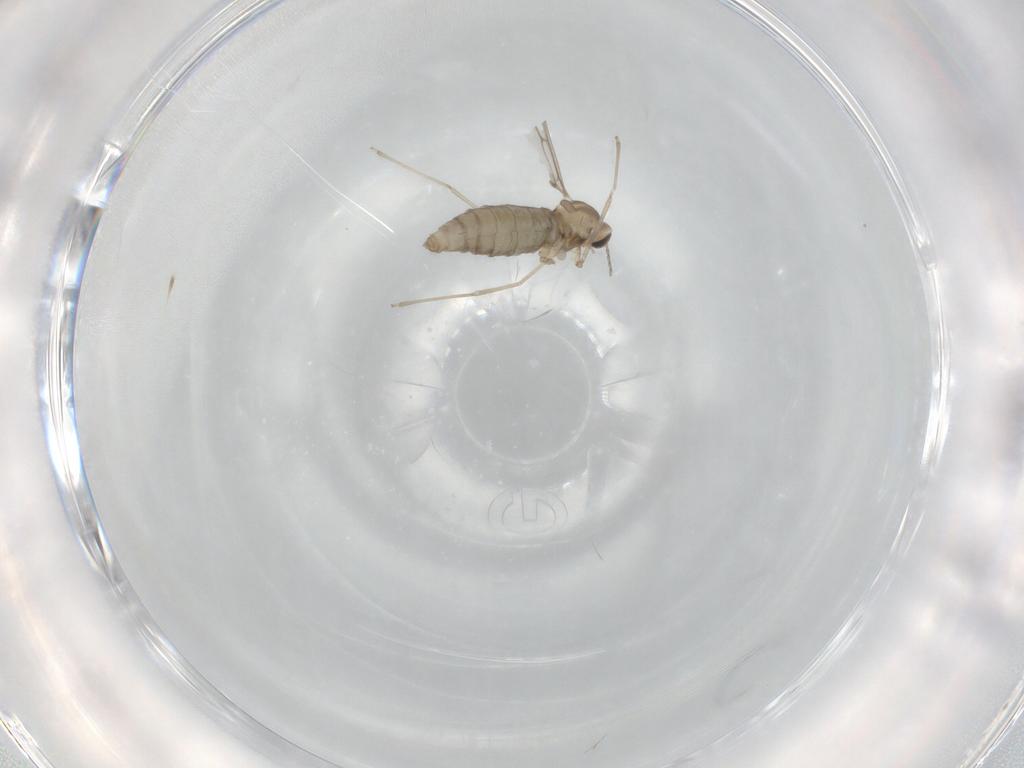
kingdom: Animalia
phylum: Arthropoda
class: Insecta
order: Diptera
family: Cecidomyiidae
